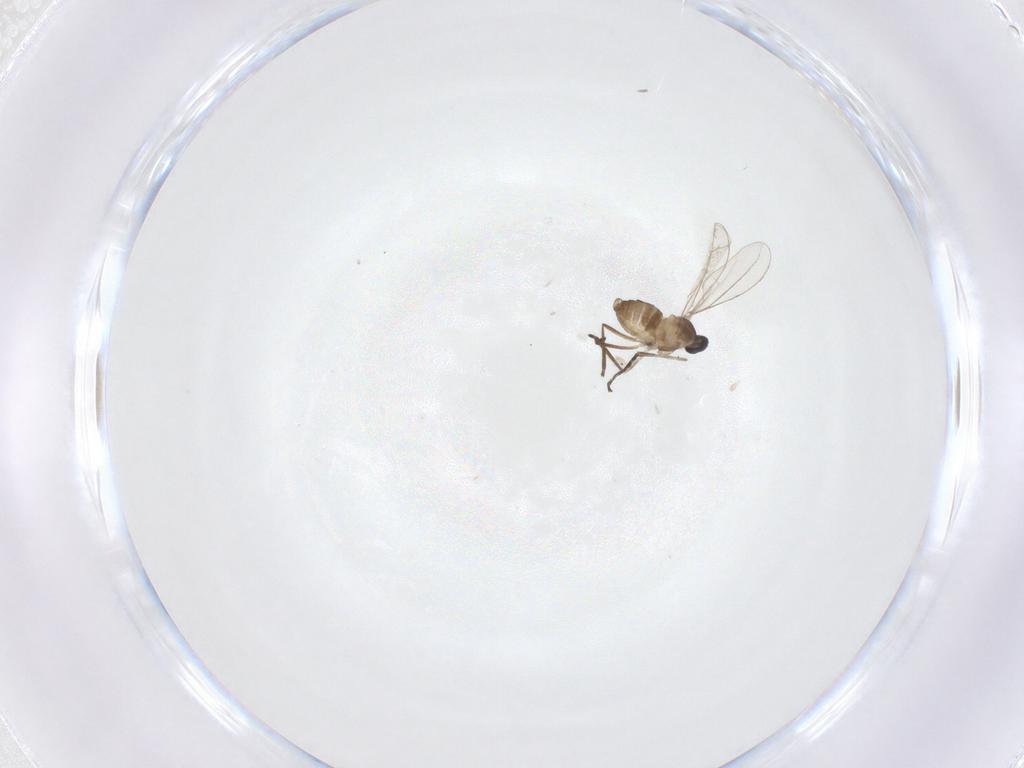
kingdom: Animalia
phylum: Arthropoda
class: Insecta
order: Diptera
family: Cecidomyiidae
